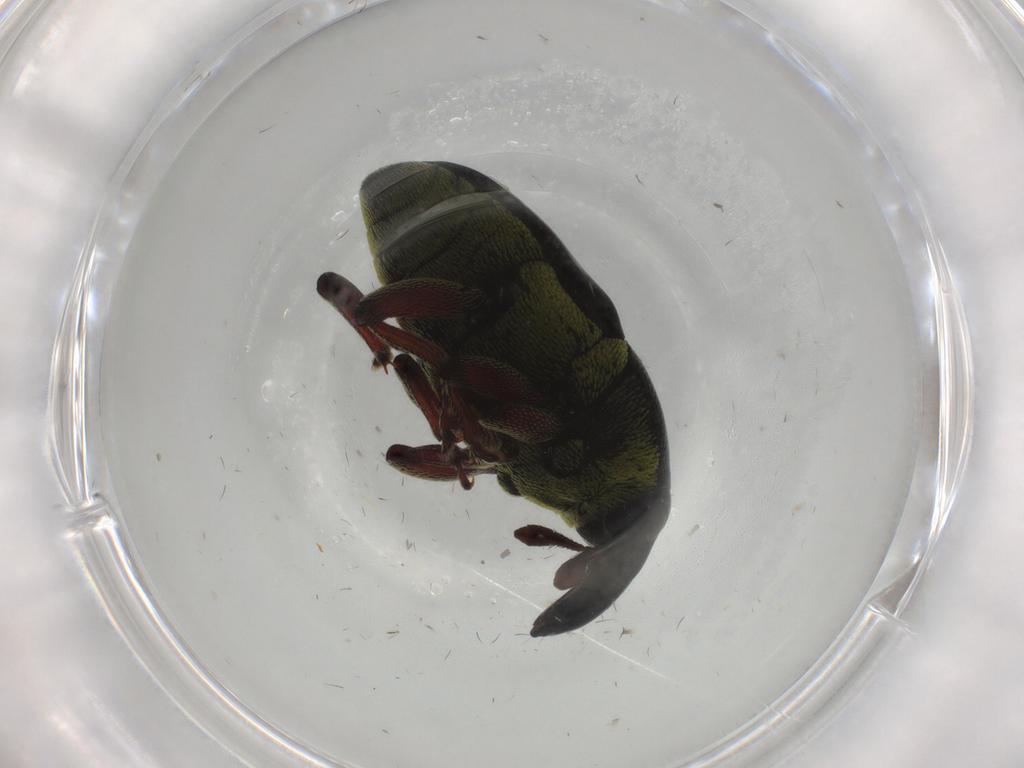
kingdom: Animalia
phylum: Arthropoda
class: Insecta
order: Coleoptera
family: Curculionidae
